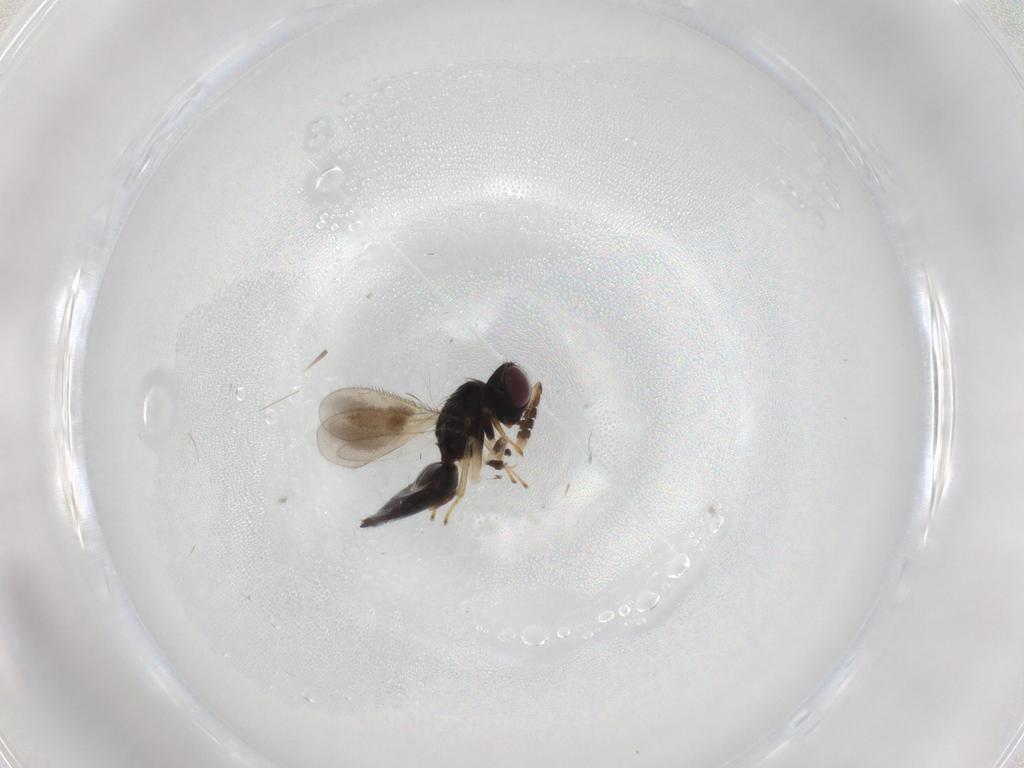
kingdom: Animalia
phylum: Arthropoda
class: Insecta
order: Hymenoptera
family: Eulophidae
